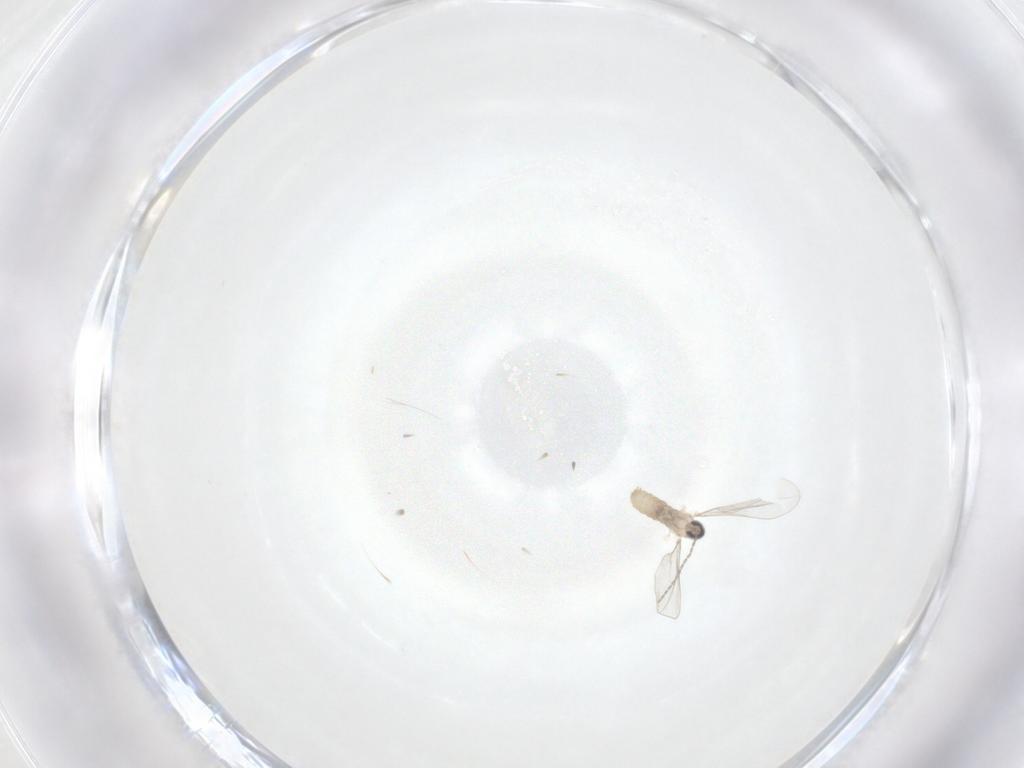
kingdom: Animalia
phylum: Arthropoda
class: Insecta
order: Diptera
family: Cecidomyiidae
